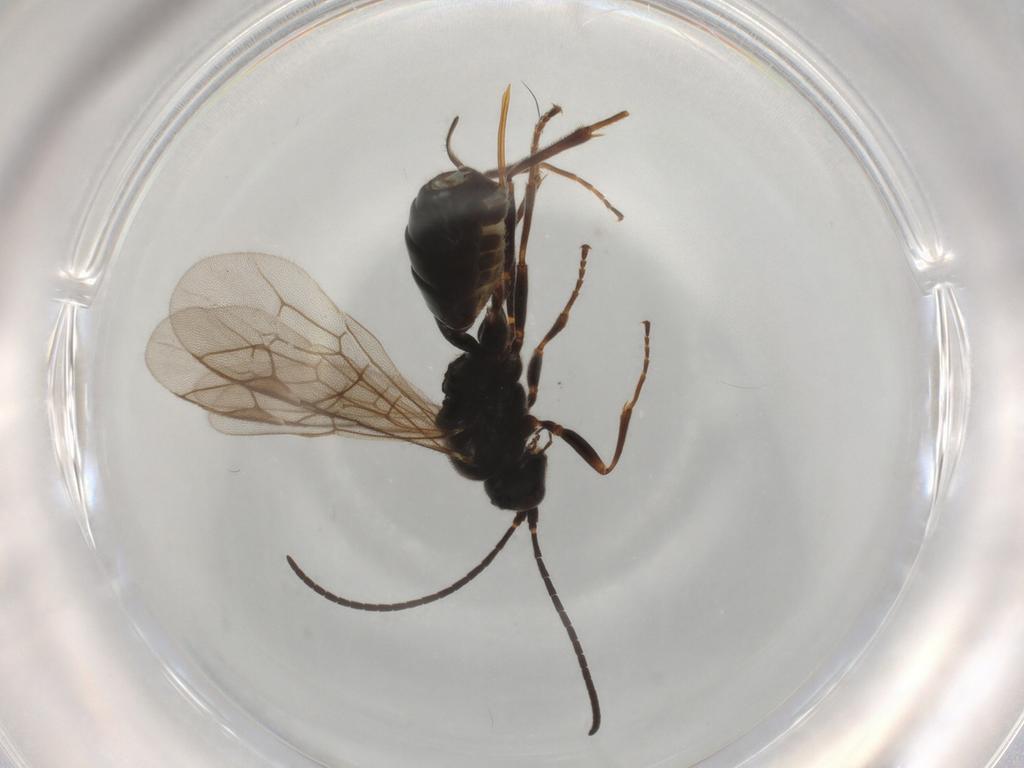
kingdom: Animalia
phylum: Arthropoda
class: Insecta
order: Hymenoptera
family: Ichneumonidae
